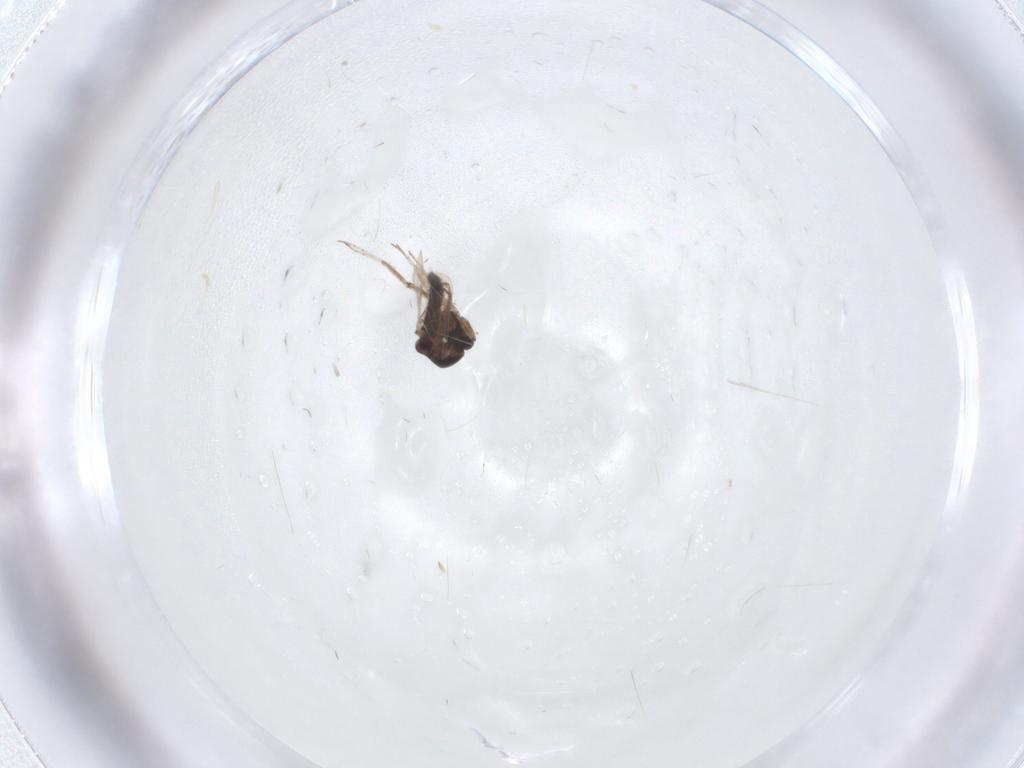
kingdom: Animalia
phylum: Arthropoda
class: Insecta
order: Diptera
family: Ceratopogonidae
